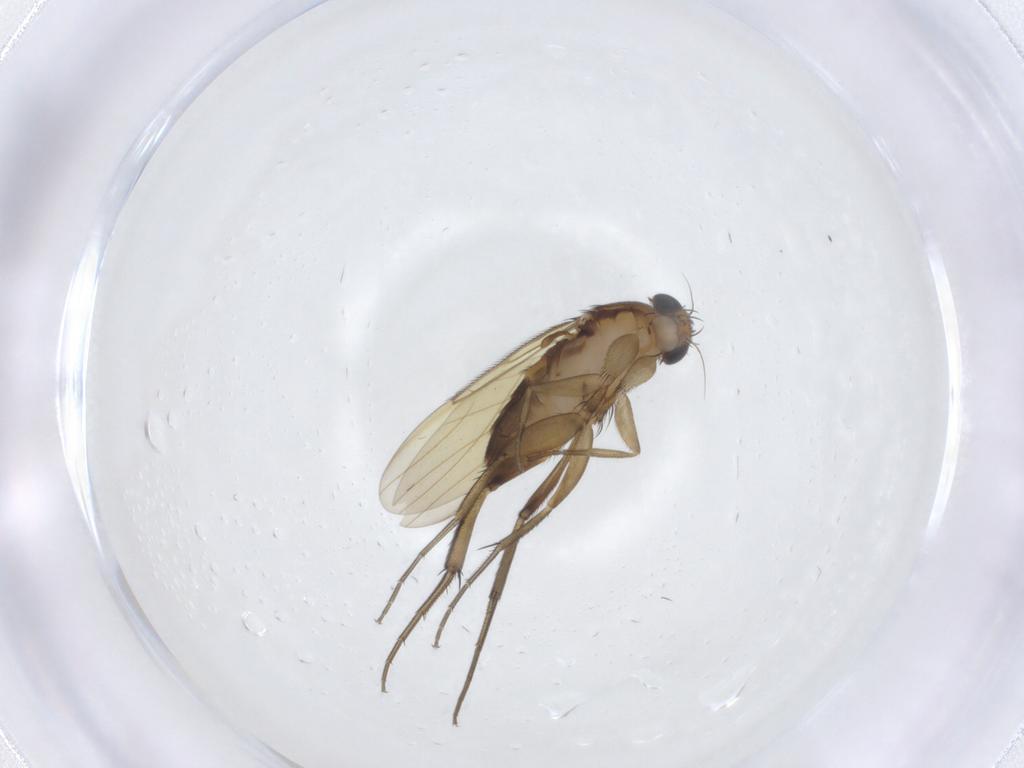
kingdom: Animalia
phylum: Arthropoda
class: Insecta
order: Diptera
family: Phoridae
